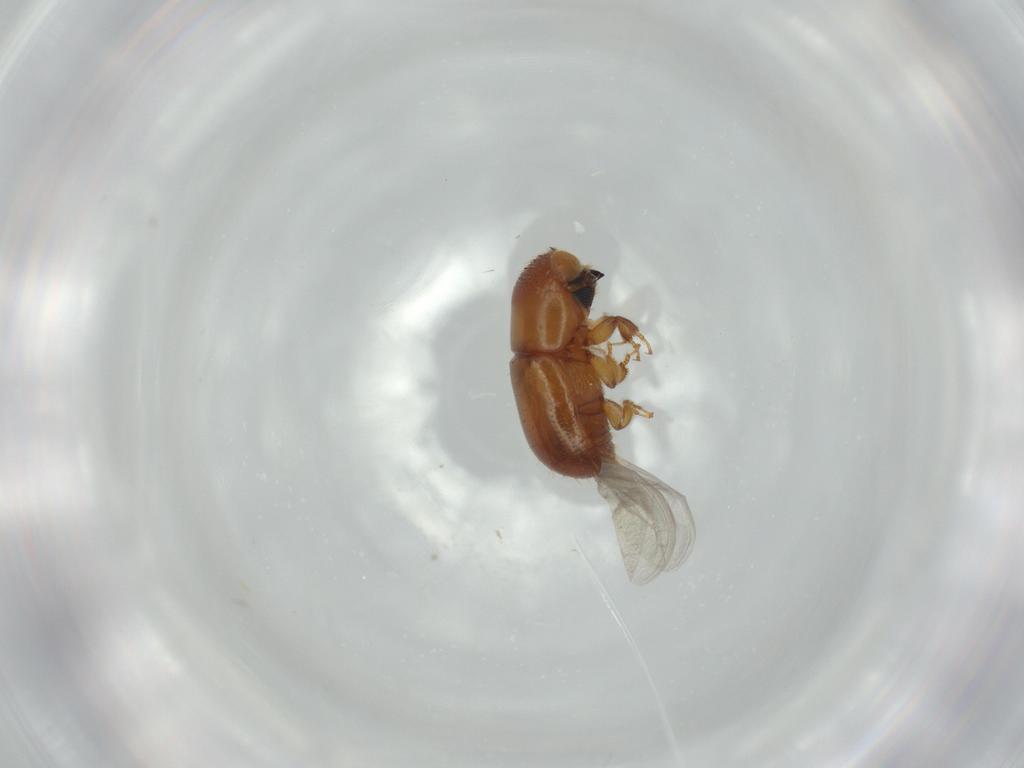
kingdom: Animalia
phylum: Arthropoda
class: Insecta
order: Coleoptera
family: Curculionidae
